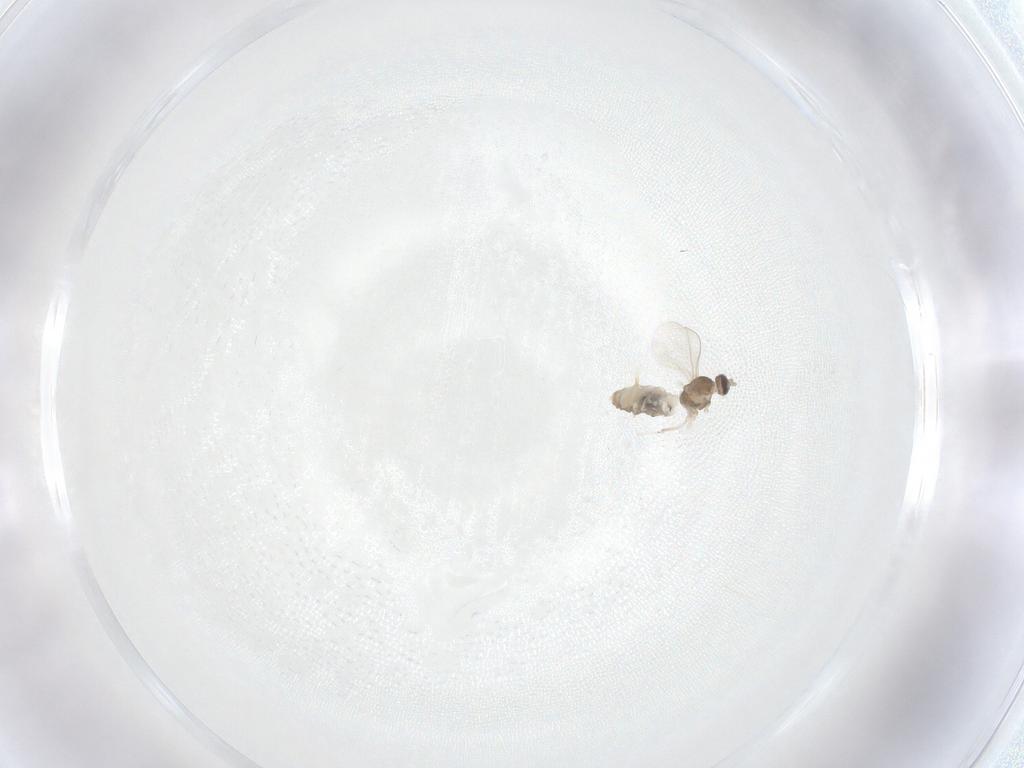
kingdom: Animalia
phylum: Arthropoda
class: Insecta
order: Diptera
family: Cecidomyiidae
